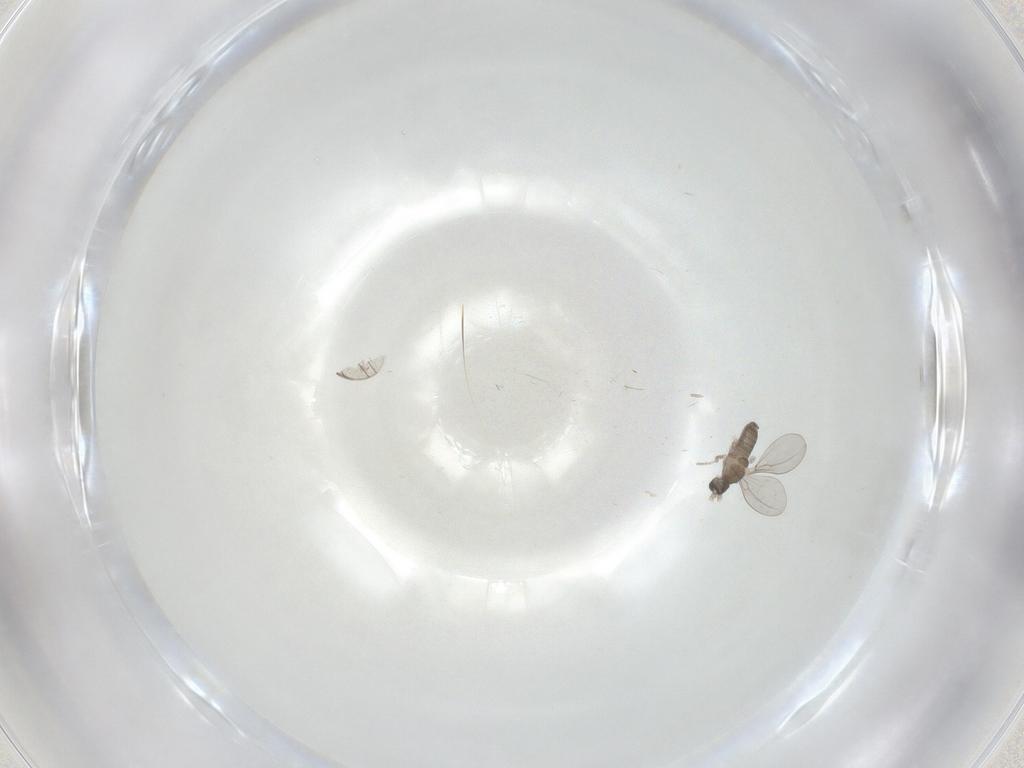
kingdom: Animalia
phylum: Arthropoda
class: Insecta
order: Diptera
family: Cecidomyiidae
